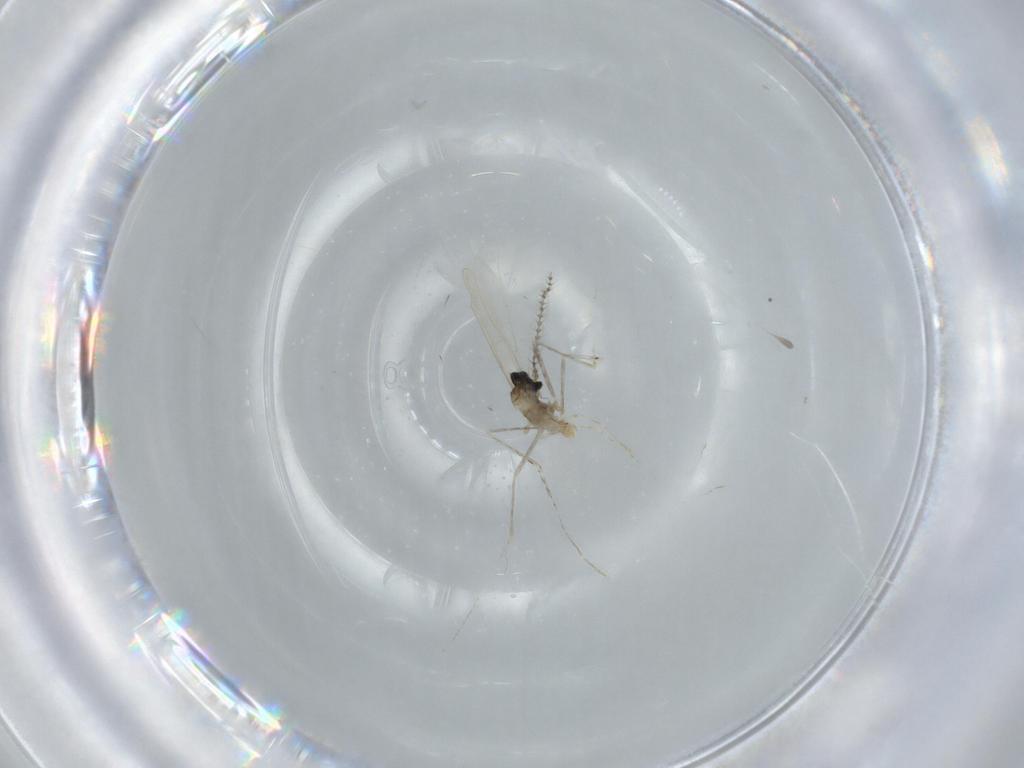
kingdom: Animalia
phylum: Arthropoda
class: Insecta
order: Diptera
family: Cecidomyiidae
